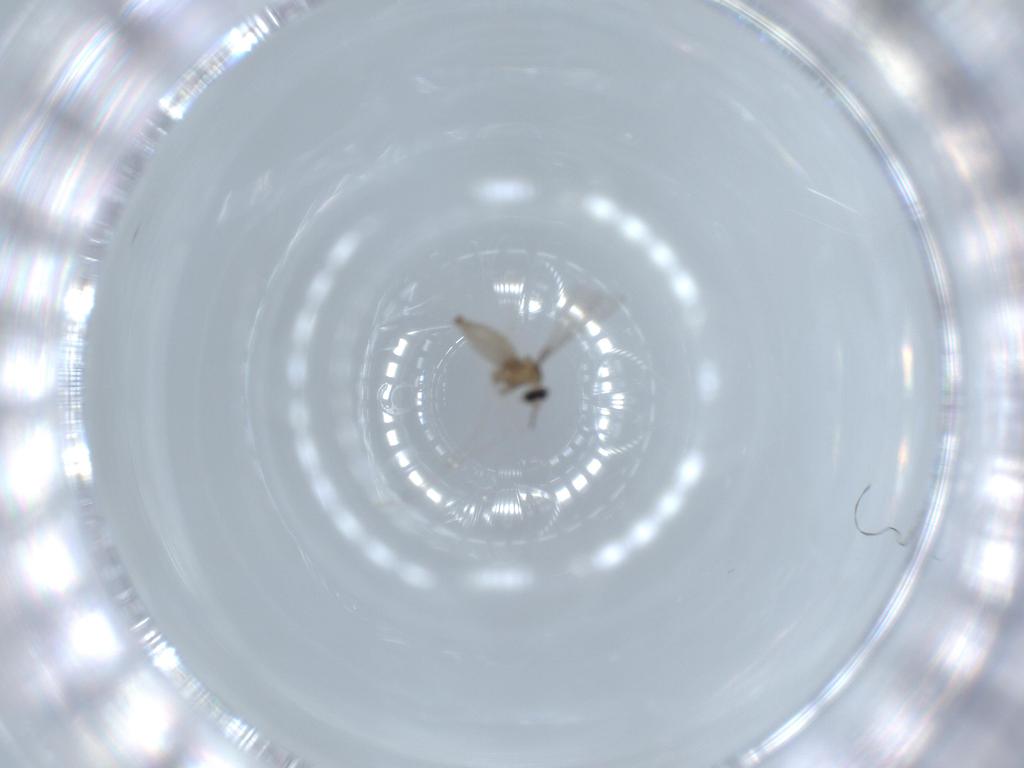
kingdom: Animalia
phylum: Arthropoda
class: Insecta
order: Diptera
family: Cecidomyiidae
